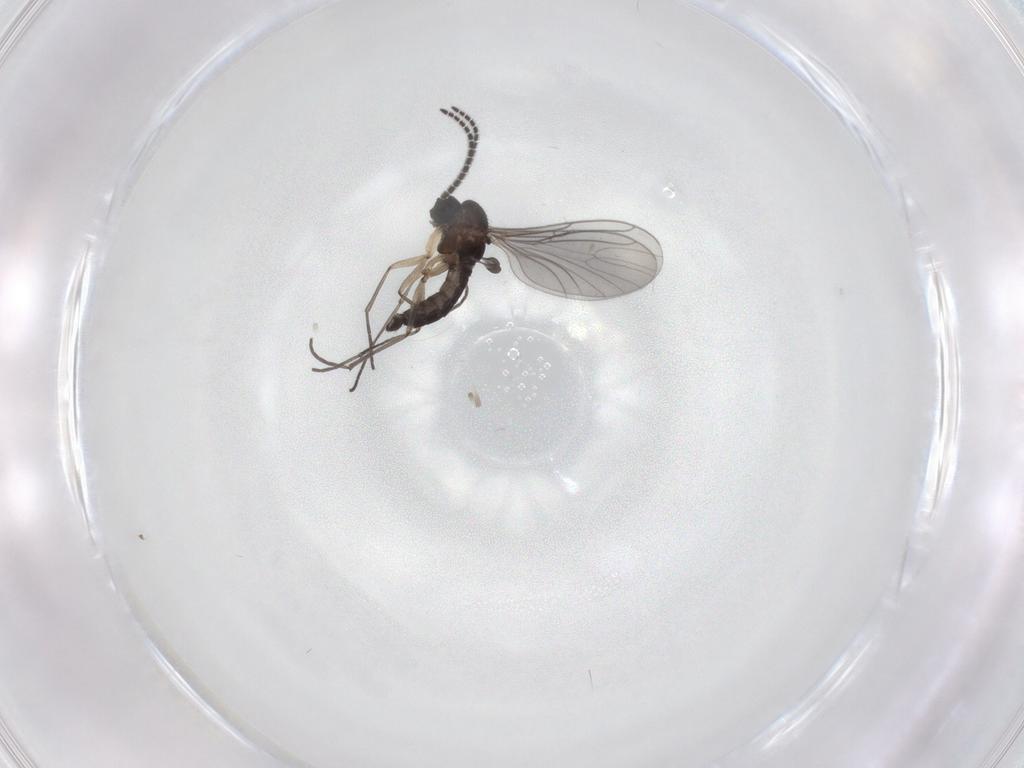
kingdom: Animalia
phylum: Arthropoda
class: Insecta
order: Diptera
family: Sciaridae
